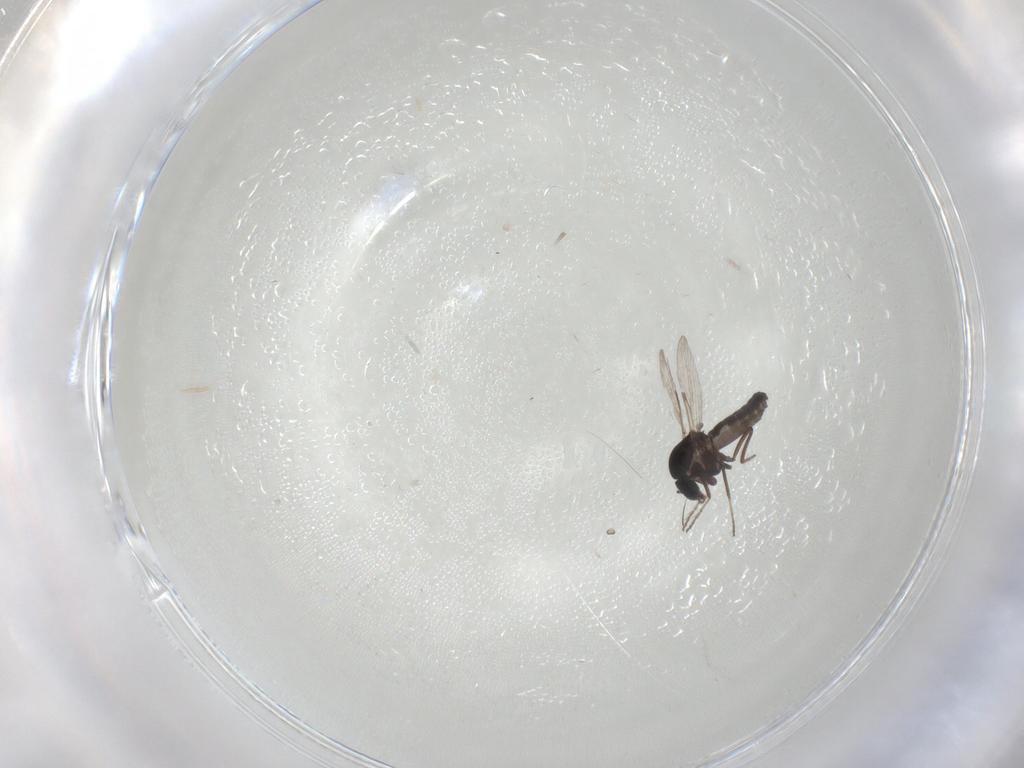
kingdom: Animalia
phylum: Arthropoda
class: Insecta
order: Diptera
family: Ceratopogonidae
